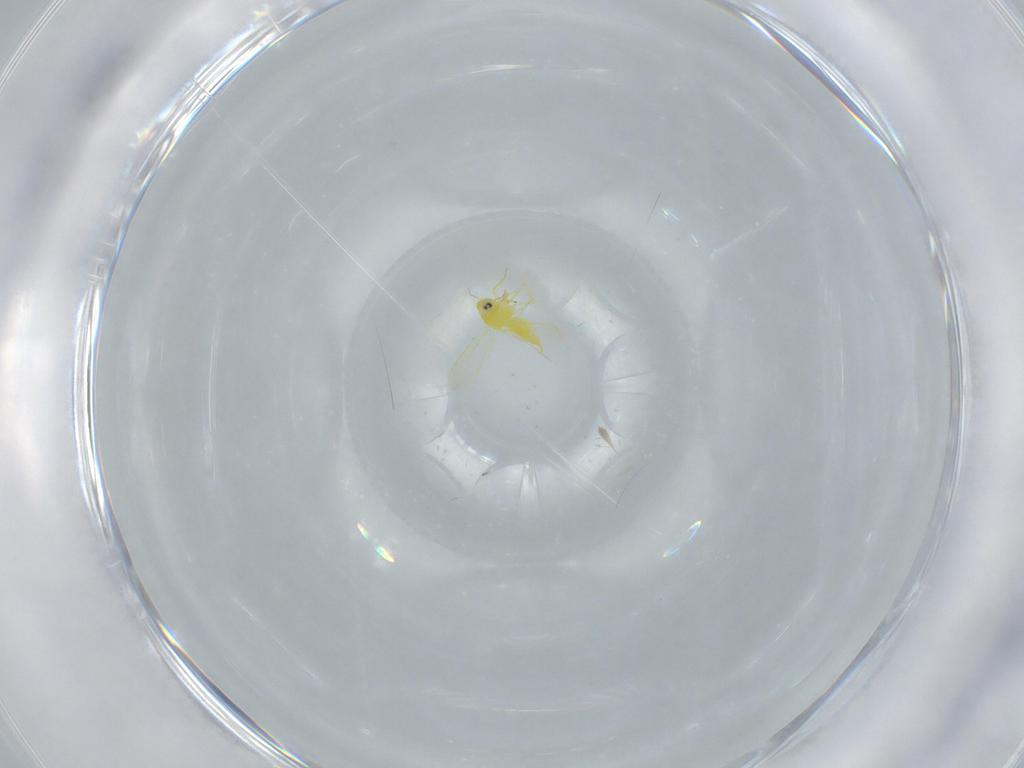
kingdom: Animalia
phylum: Arthropoda
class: Insecta
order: Hemiptera
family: Aleyrodidae
